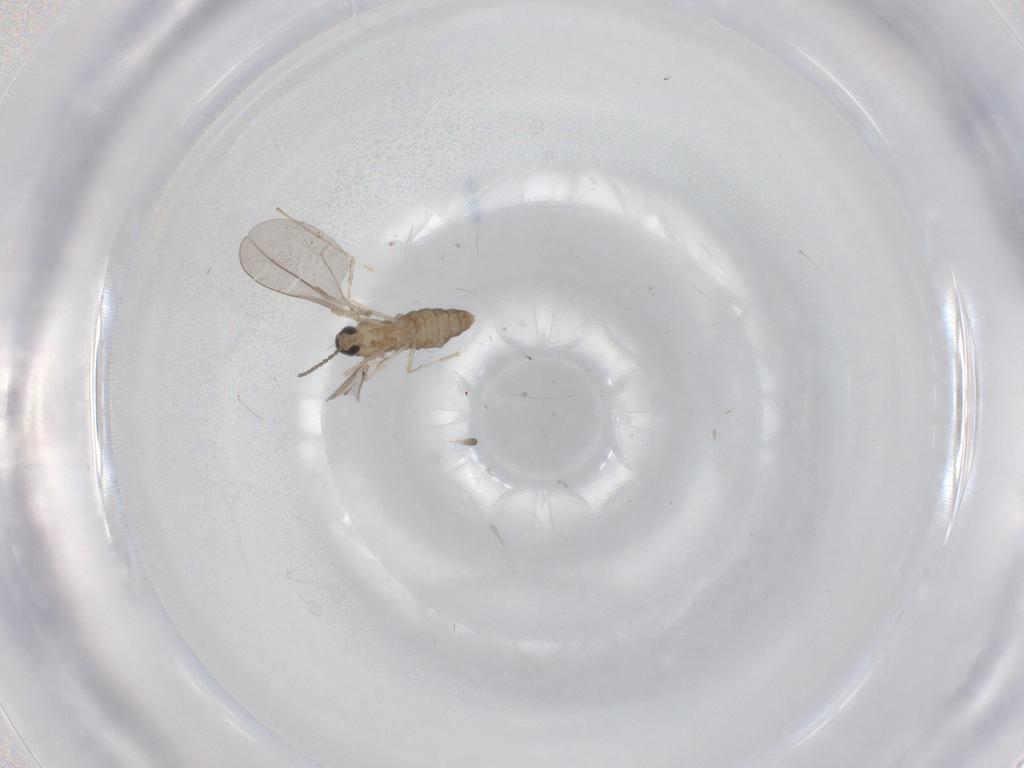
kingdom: Animalia
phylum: Arthropoda
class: Insecta
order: Diptera
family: Cecidomyiidae
